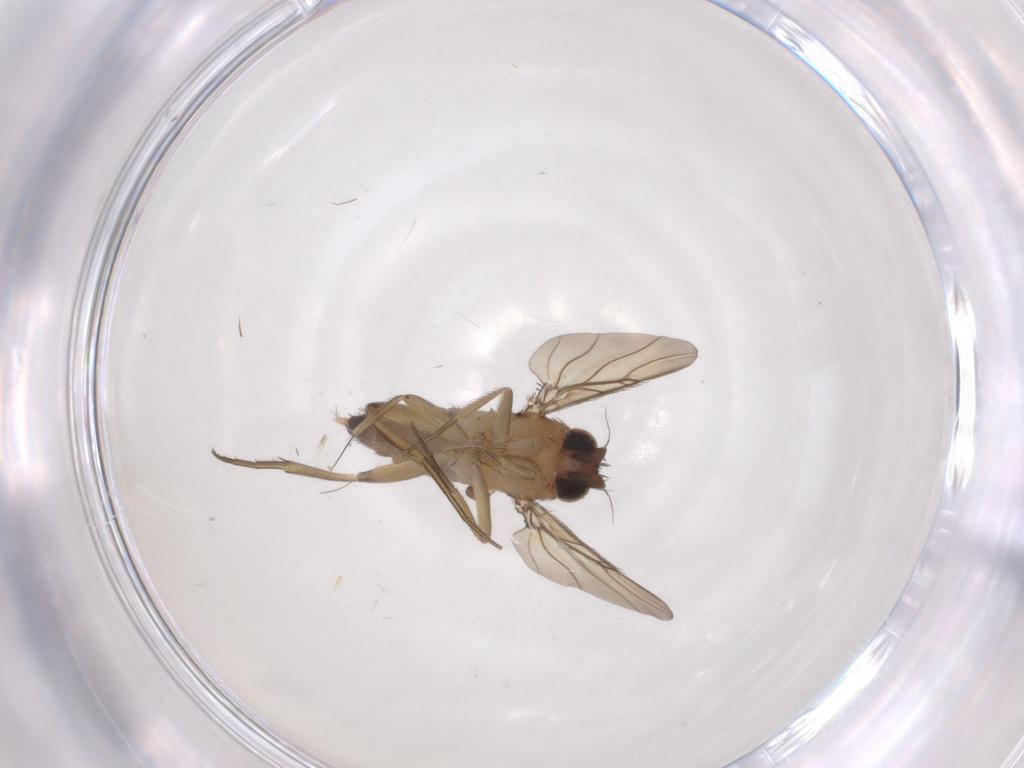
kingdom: Animalia
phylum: Arthropoda
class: Insecta
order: Diptera
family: Phoridae
